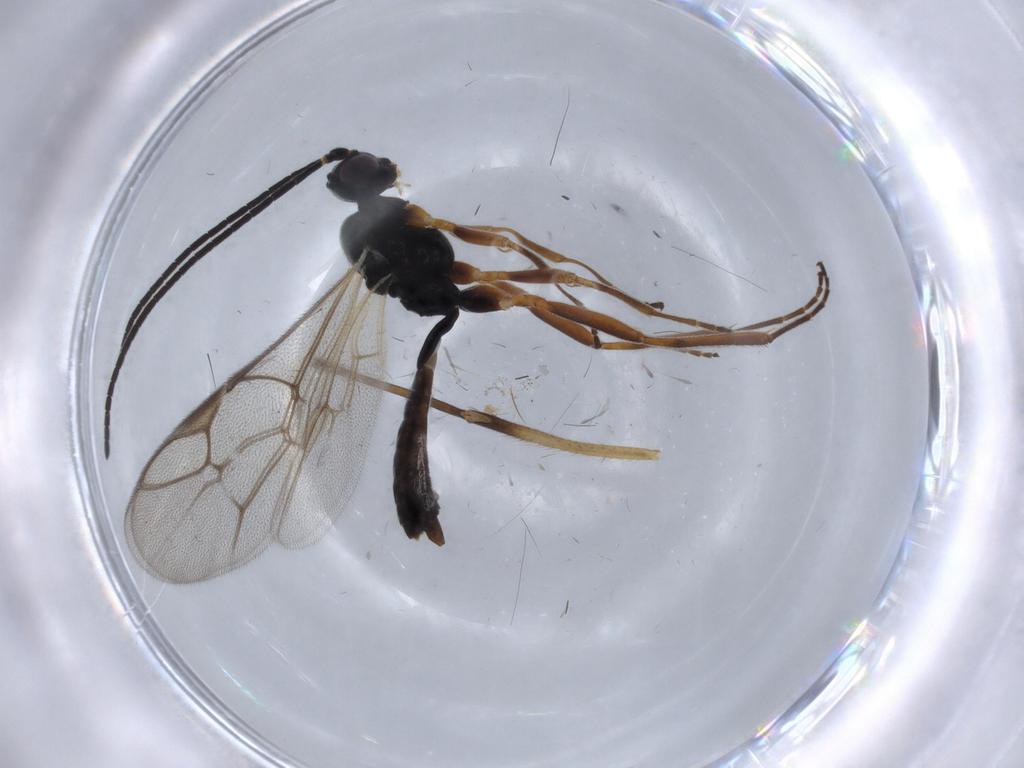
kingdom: Animalia
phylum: Arthropoda
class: Insecta
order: Hymenoptera
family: Ichneumonidae
